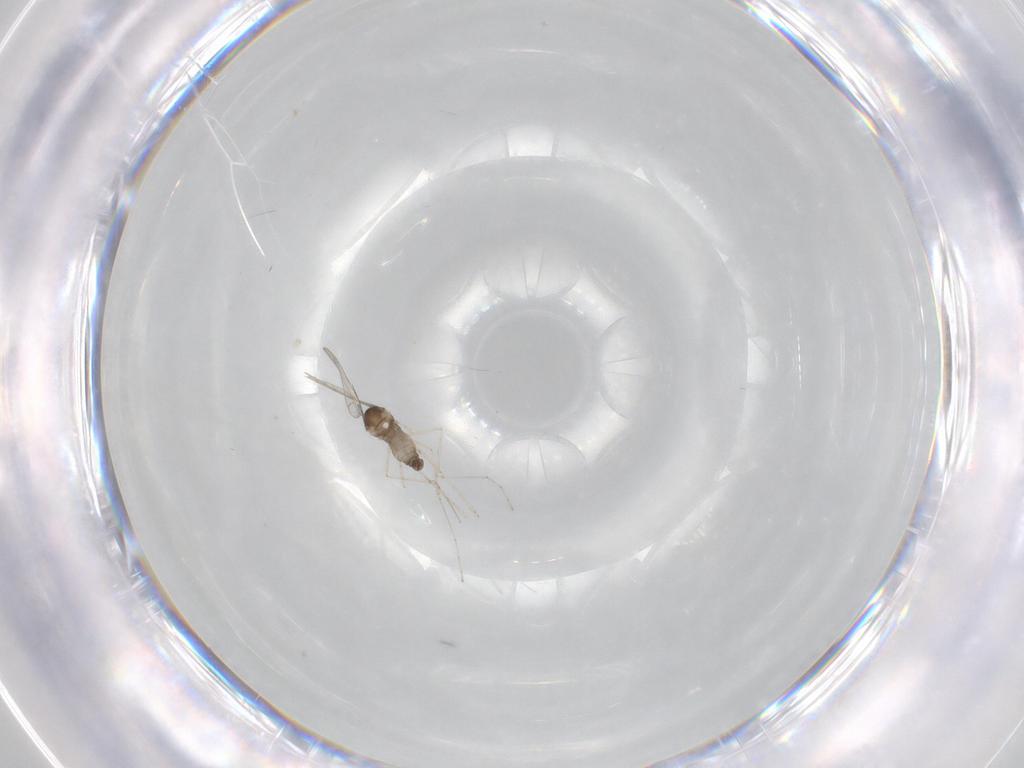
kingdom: Animalia
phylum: Arthropoda
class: Insecta
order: Diptera
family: Cecidomyiidae
